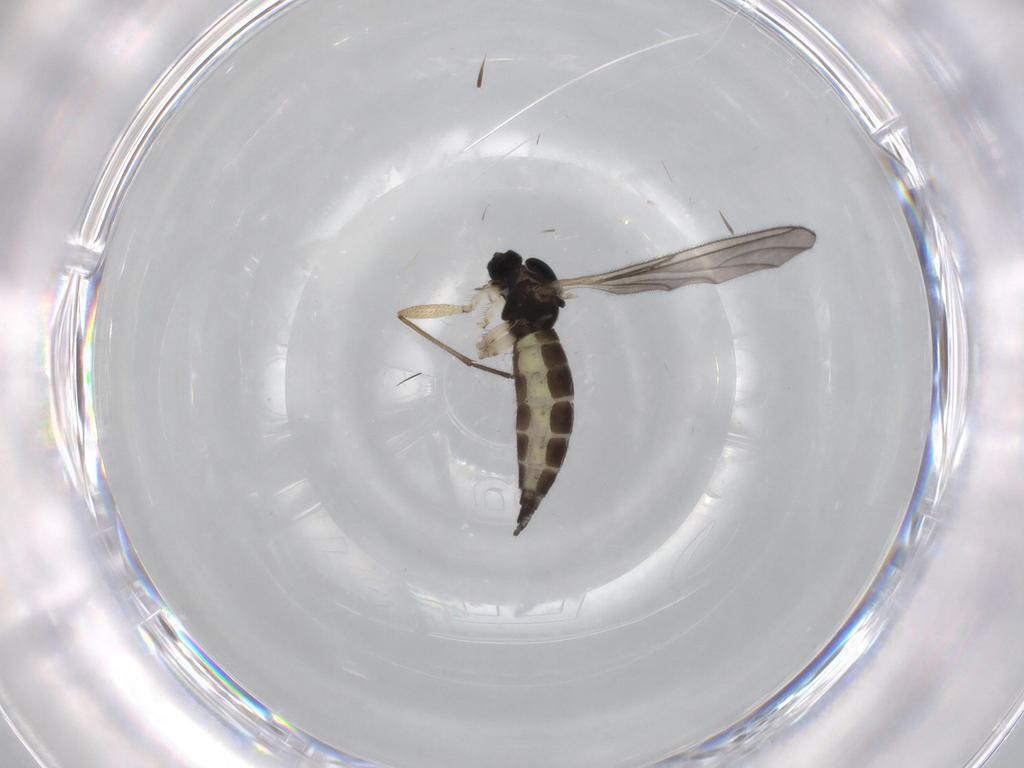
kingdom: Animalia
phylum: Arthropoda
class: Insecta
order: Diptera
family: Sciaridae
